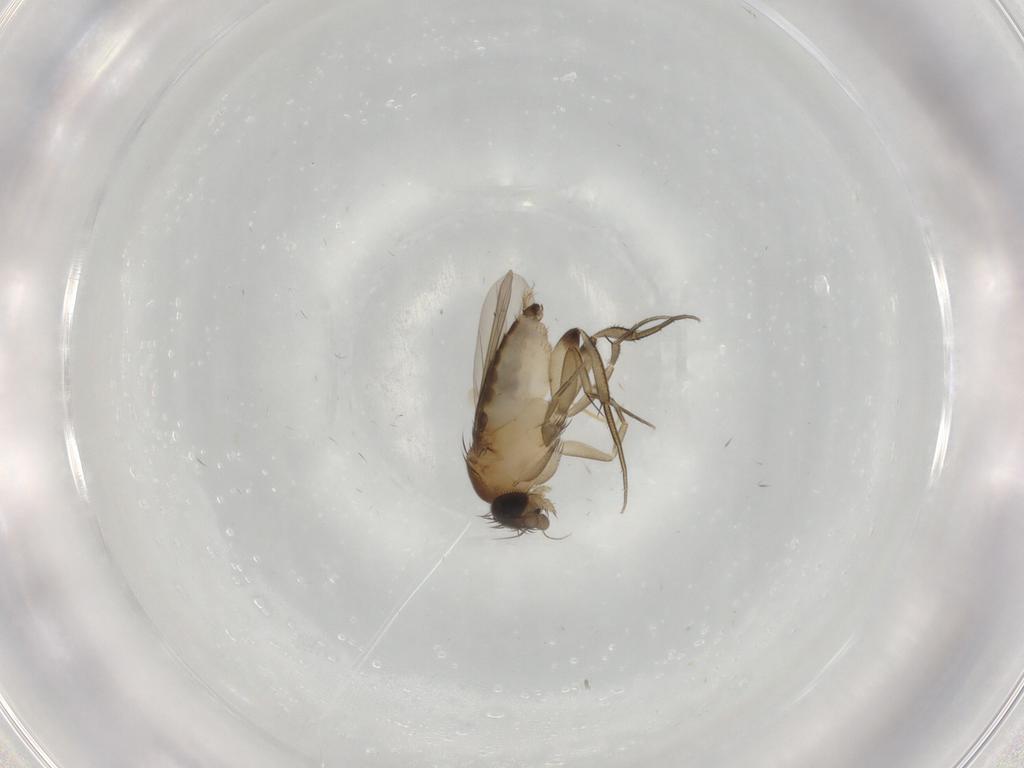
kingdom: Animalia
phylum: Arthropoda
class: Insecta
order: Diptera
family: Phoridae
